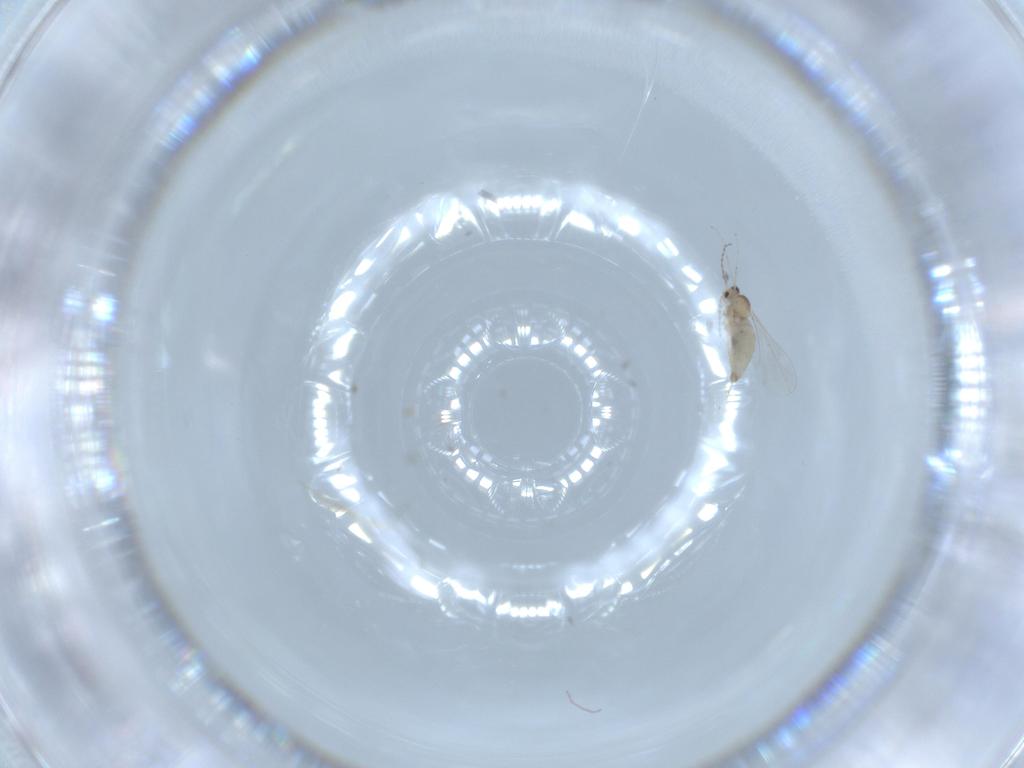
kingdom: Animalia
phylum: Arthropoda
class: Insecta
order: Diptera
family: Cecidomyiidae
